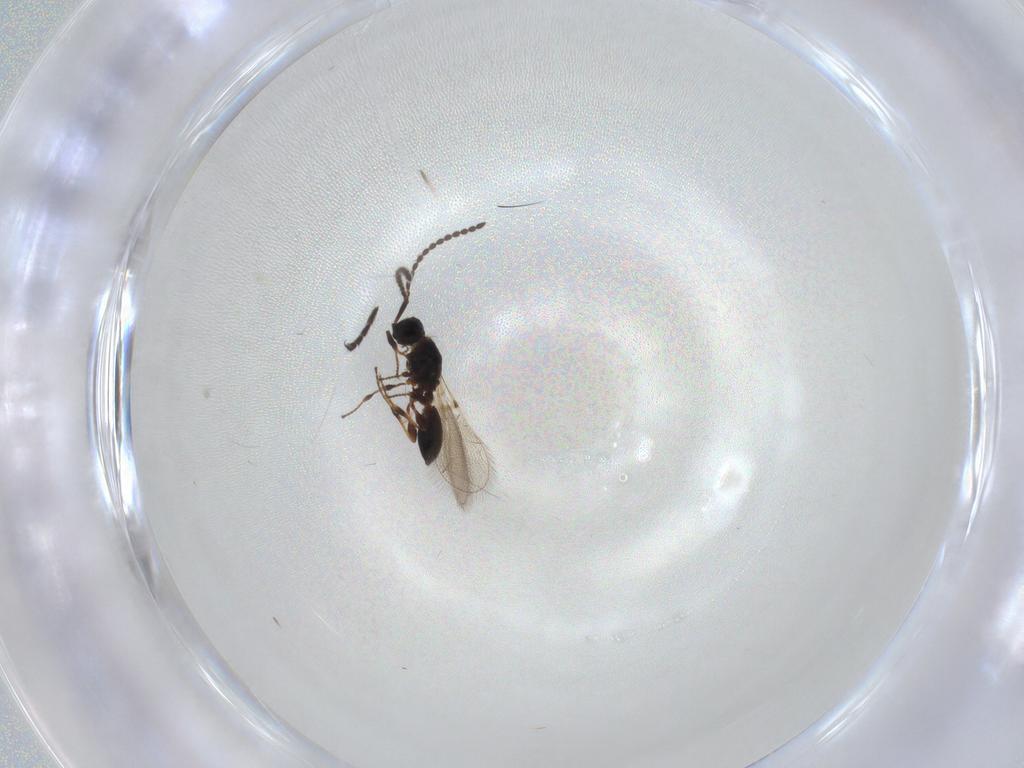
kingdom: Animalia
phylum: Arthropoda
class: Insecta
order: Hymenoptera
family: Diapriidae
